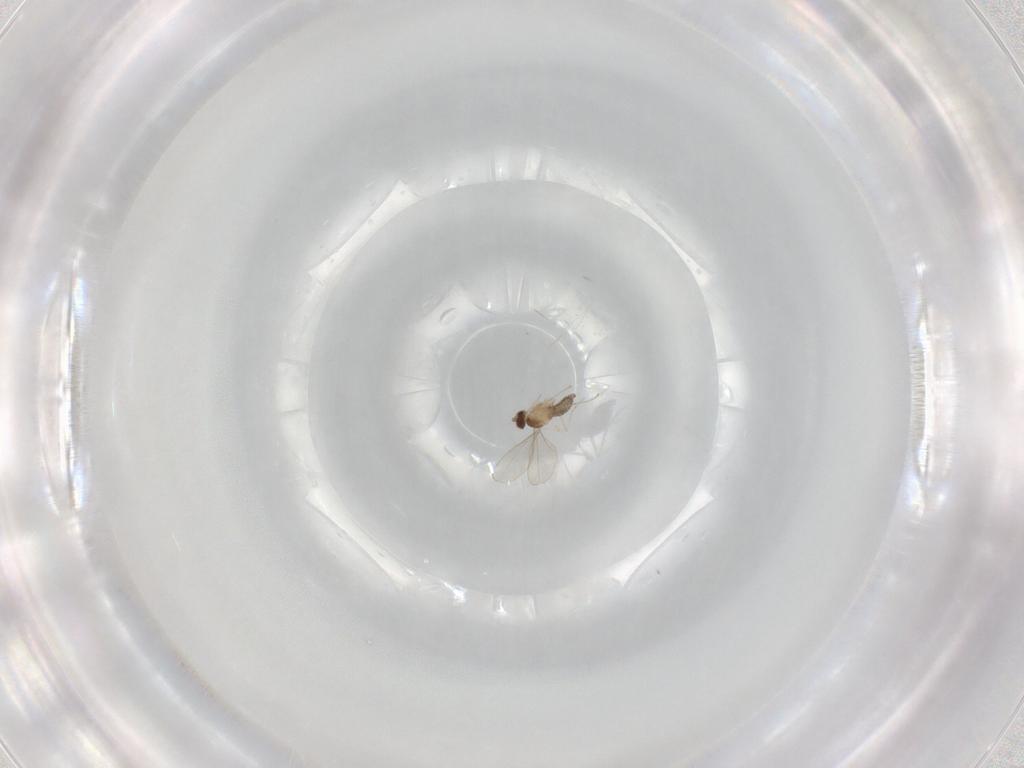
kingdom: Animalia
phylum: Arthropoda
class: Insecta
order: Diptera
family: Cecidomyiidae
